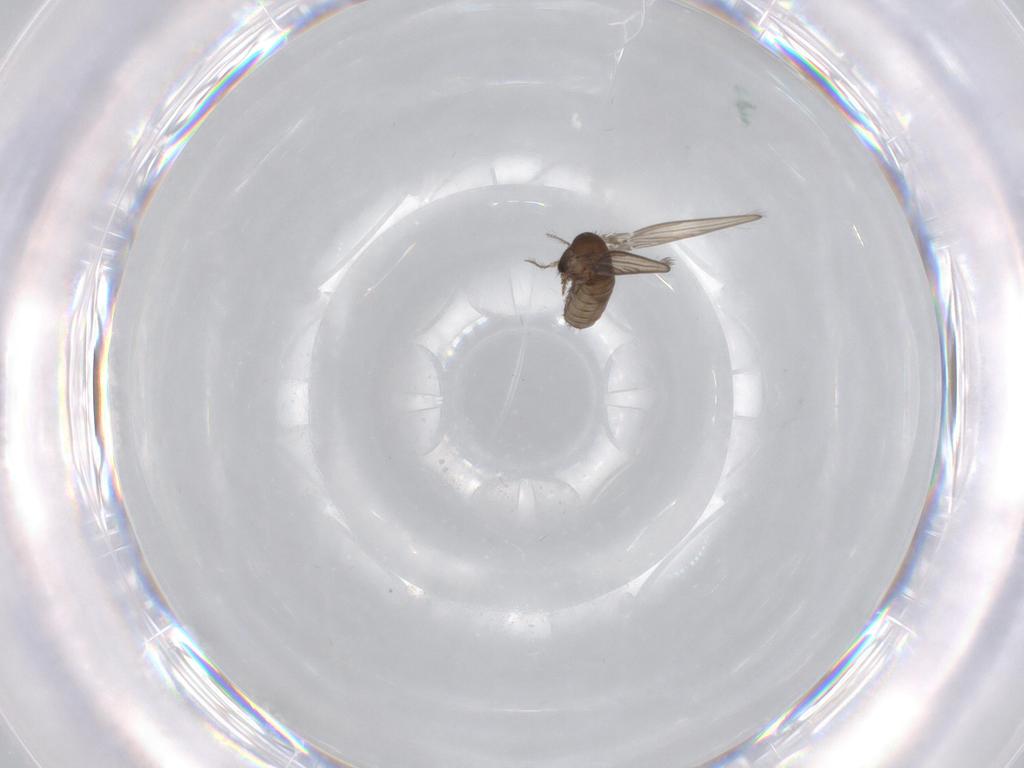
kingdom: Animalia
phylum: Arthropoda
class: Insecta
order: Diptera
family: Psychodidae
